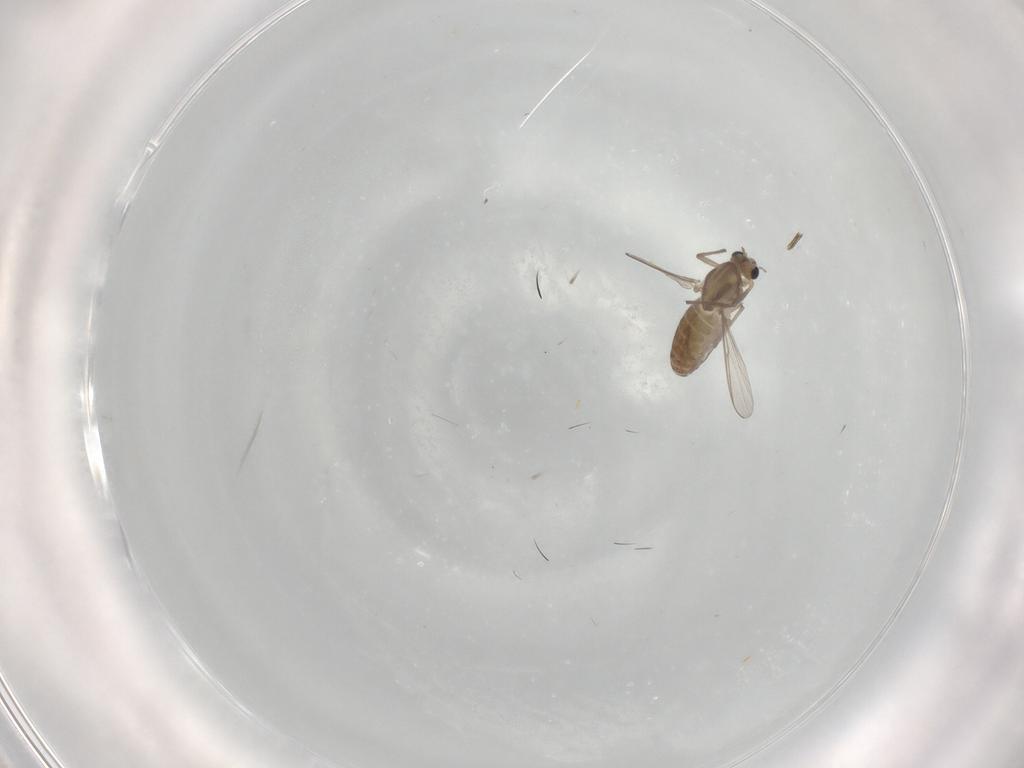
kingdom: Animalia
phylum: Arthropoda
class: Insecta
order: Diptera
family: Chironomidae
